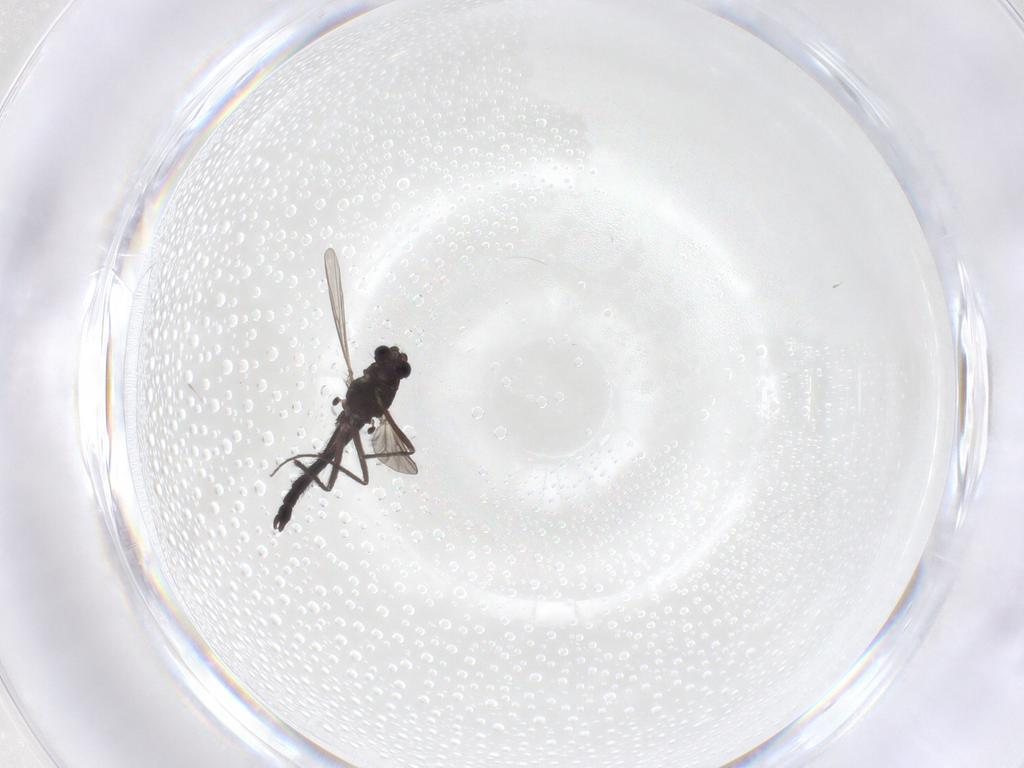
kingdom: Animalia
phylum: Arthropoda
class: Insecta
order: Diptera
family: Chironomidae
